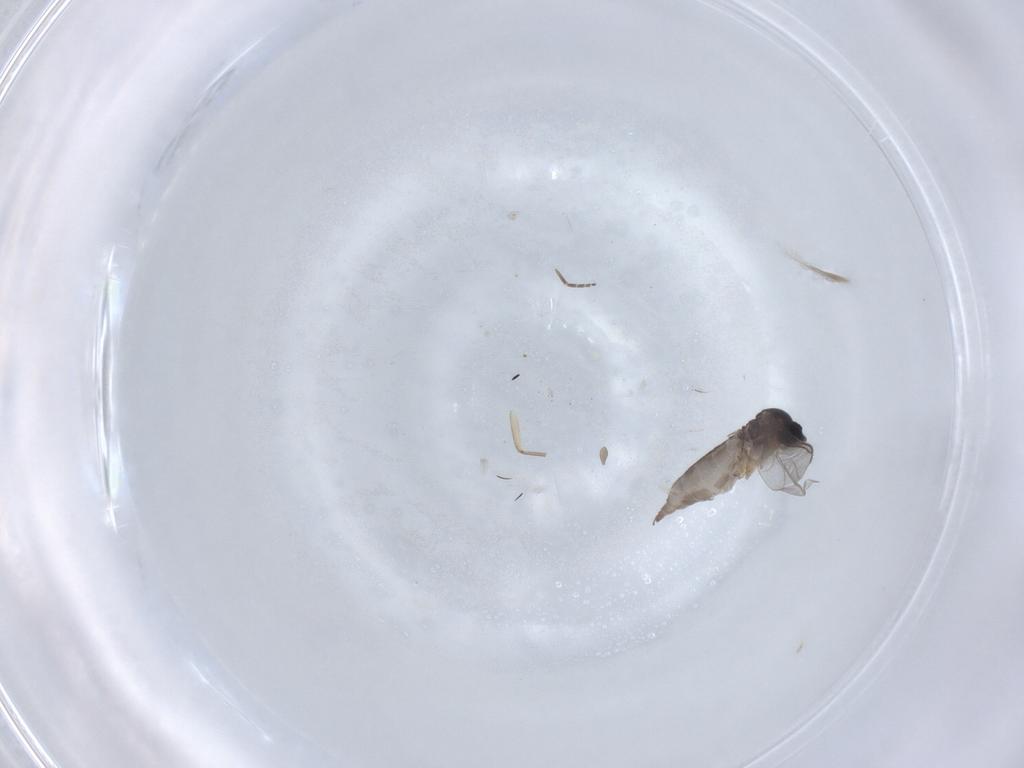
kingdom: Animalia
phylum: Arthropoda
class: Insecta
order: Diptera
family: Sciaridae
